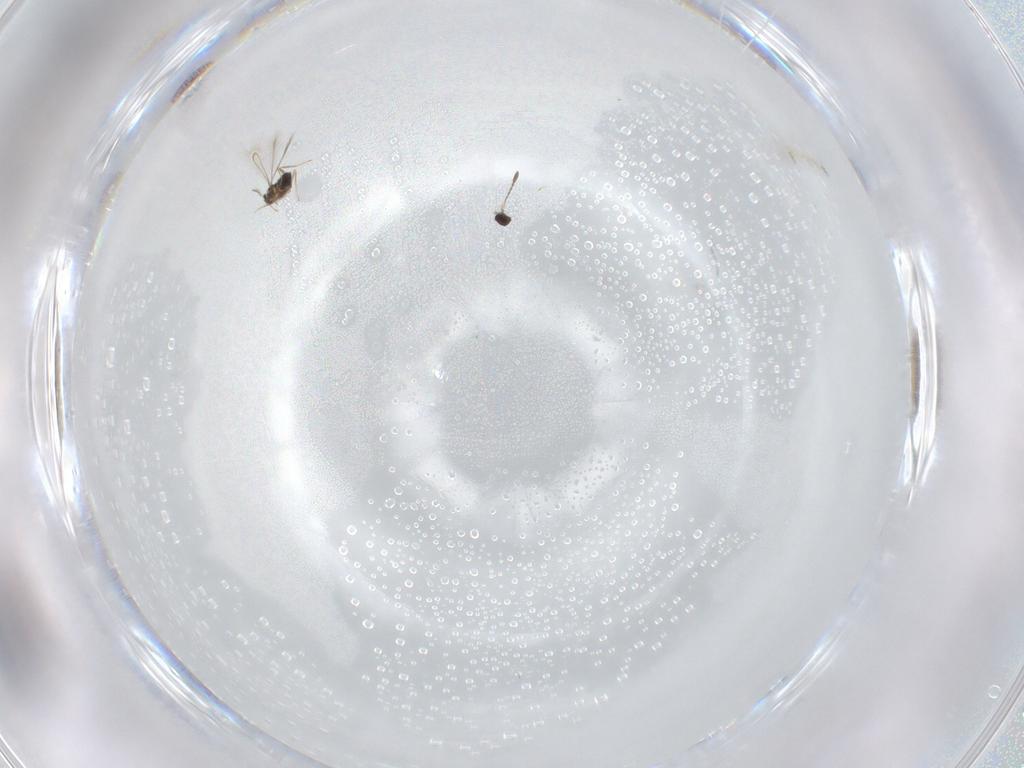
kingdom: Animalia
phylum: Arthropoda
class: Insecta
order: Hymenoptera
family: Mymaridae
